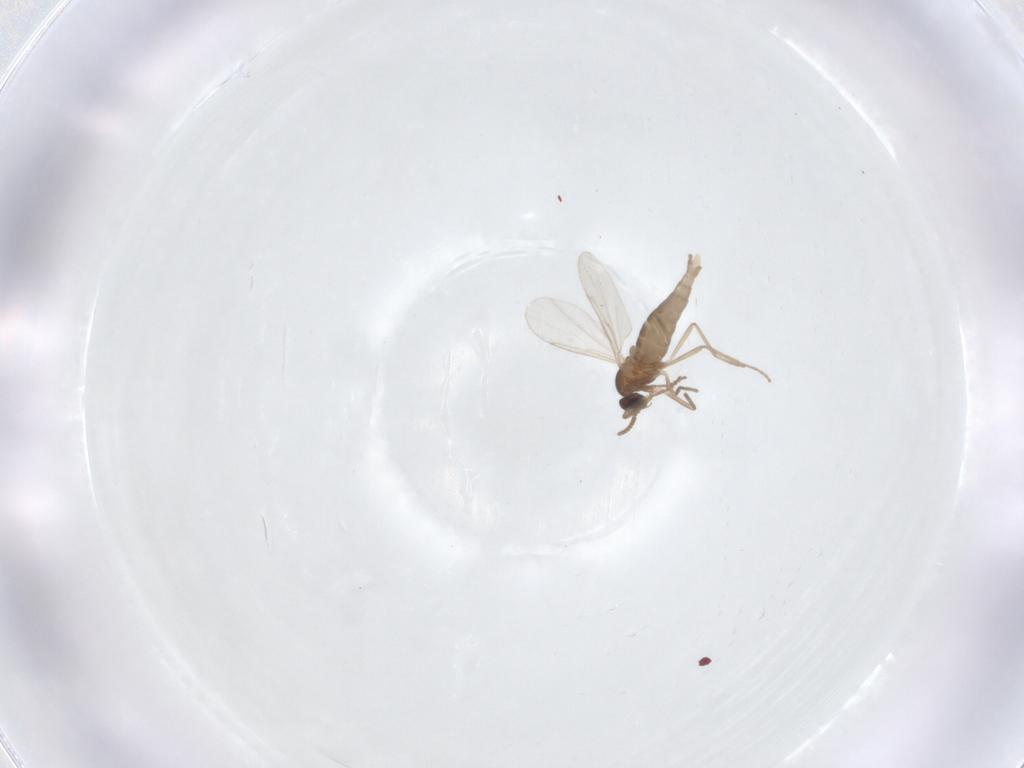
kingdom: Animalia
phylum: Arthropoda
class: Insecta
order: Diptera
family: Cecidomyiidae
